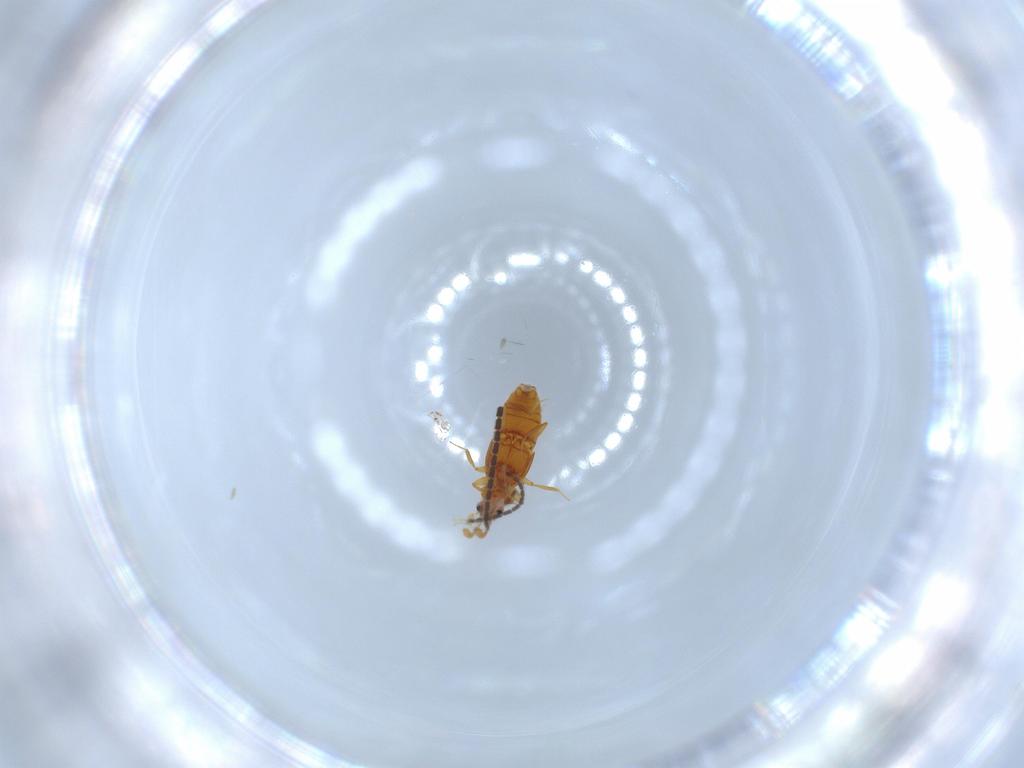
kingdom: Animalia
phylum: Arthropoda
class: Insecta
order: Coleoptera
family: Staphylinidae
